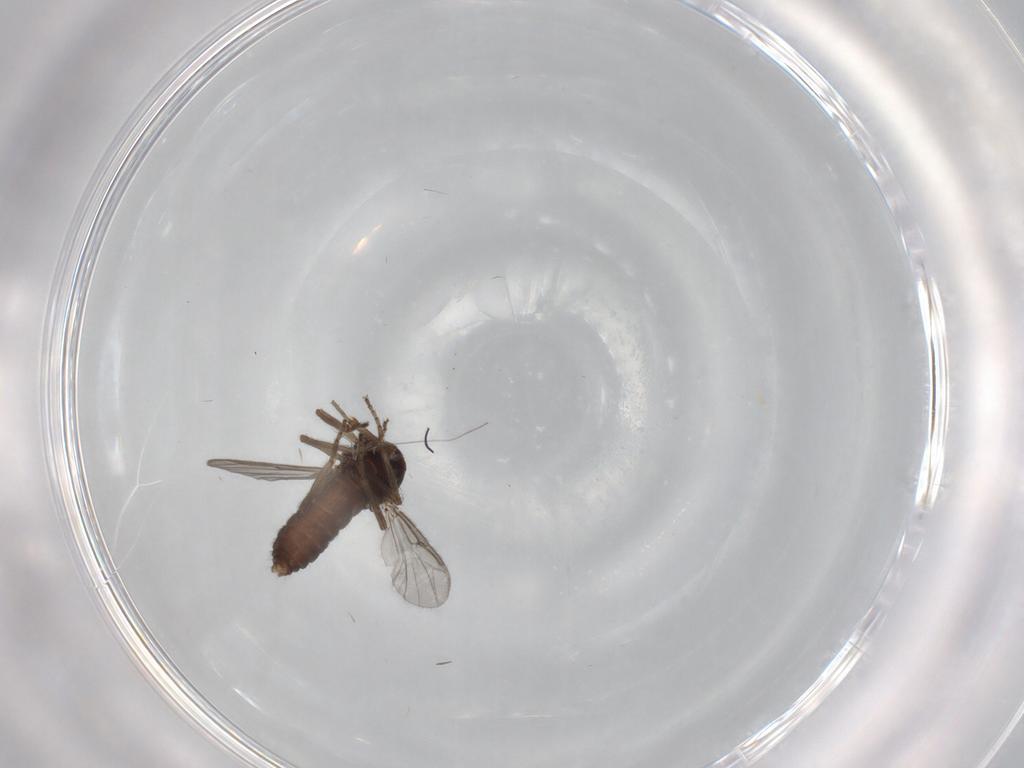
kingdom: Animalia
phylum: Arthropoda
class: Insecta
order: Diptera
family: Ceratopogonidae
